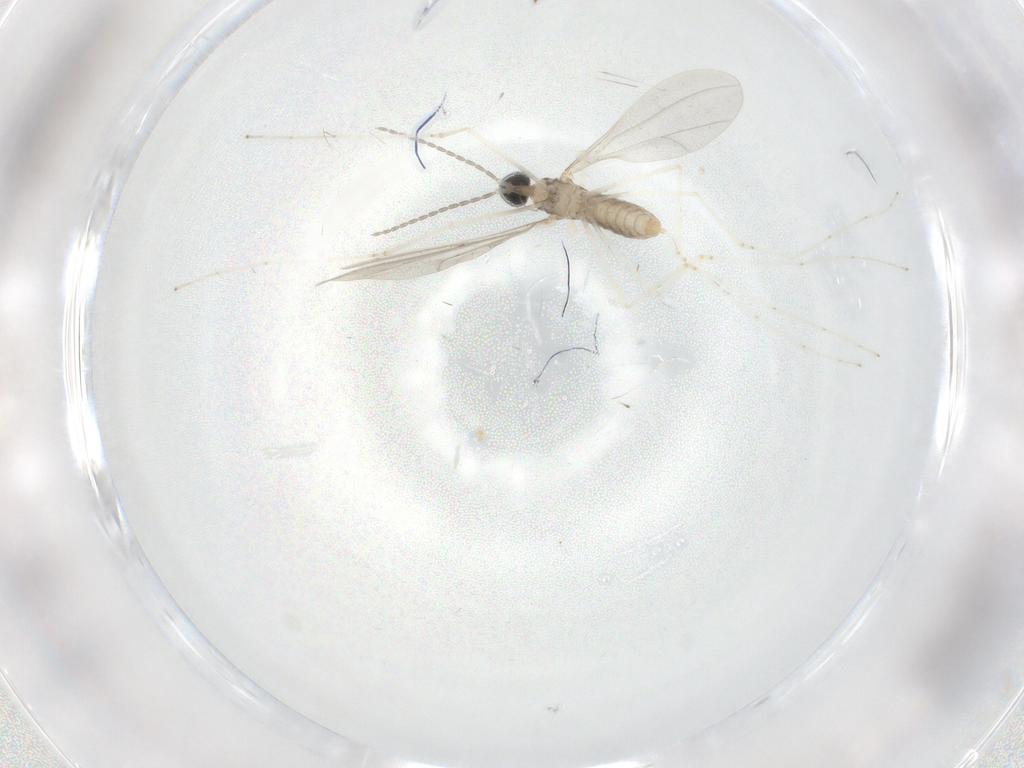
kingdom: Animalia
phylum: Arthropoda
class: Insecta
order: Diptera
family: Cecidomyiidae
